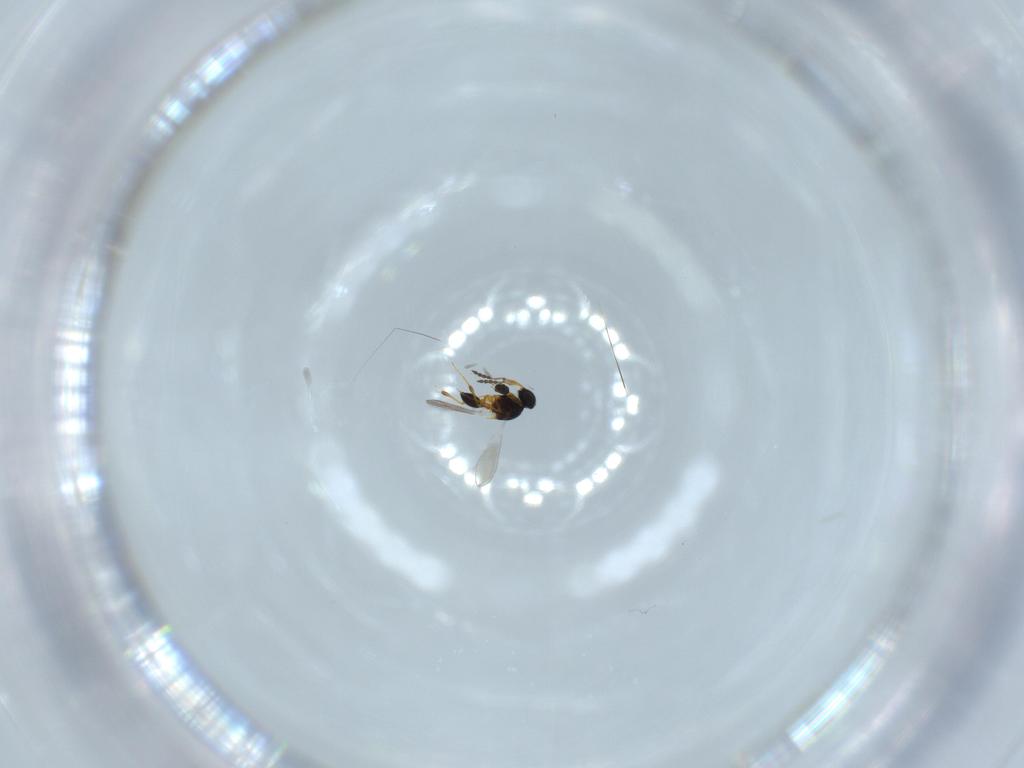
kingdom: Animalia
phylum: Arthropoda
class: Insecta
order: Hymenoptera
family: Platygastridae
